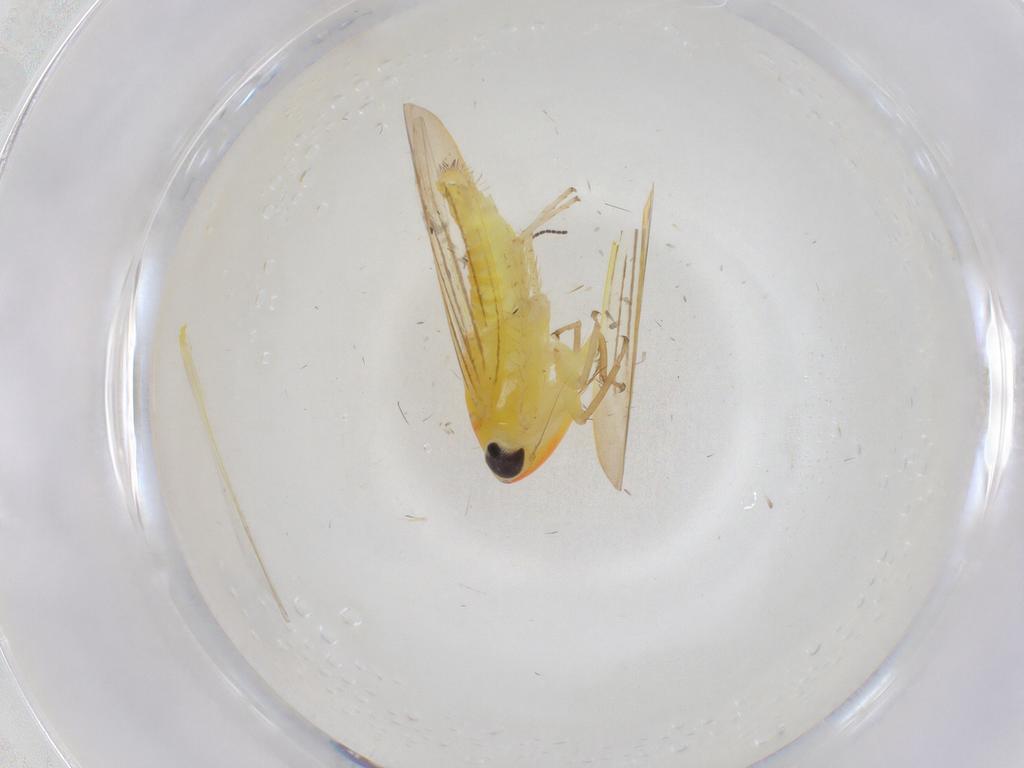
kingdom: Animalia
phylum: Arthropoda
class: Insecta
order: Hemiptera
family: Cicadellidae
